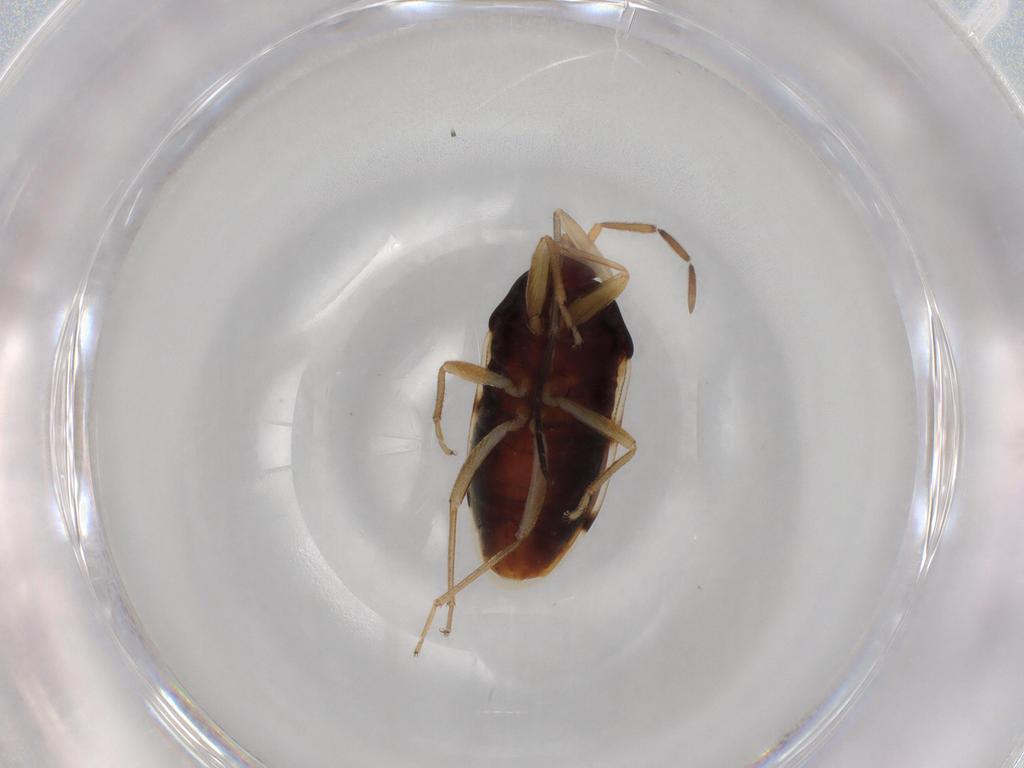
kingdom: Animalia
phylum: Arthropoda
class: Insecta
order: Hemiptera
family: Rhyparochromidae
